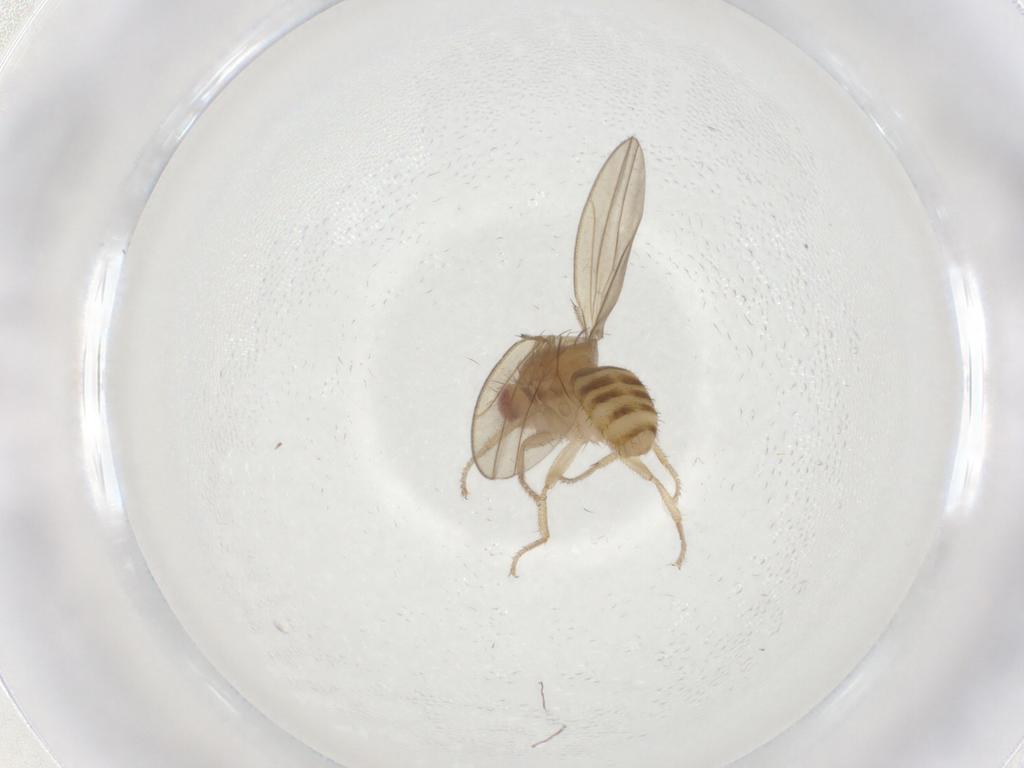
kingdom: Animalia
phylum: Arthropoda
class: Insecta
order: Diptera
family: Drosophilidae
